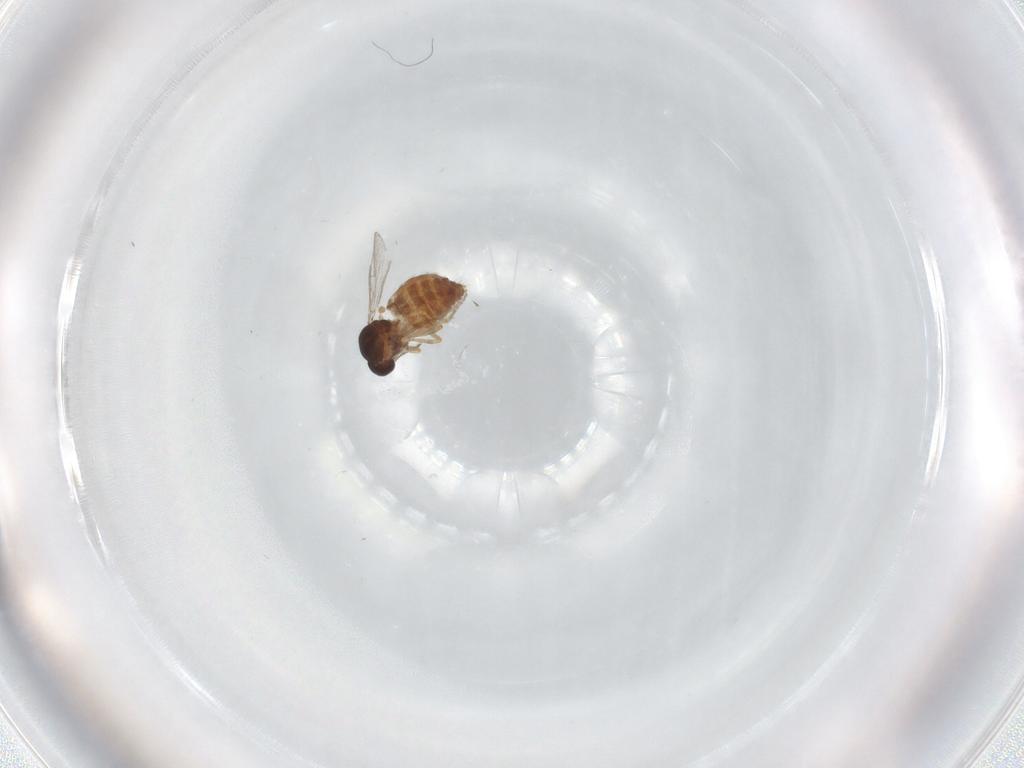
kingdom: Animalia
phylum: Arthropoda
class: Insecta
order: Diptera
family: Ceratopogonidae
